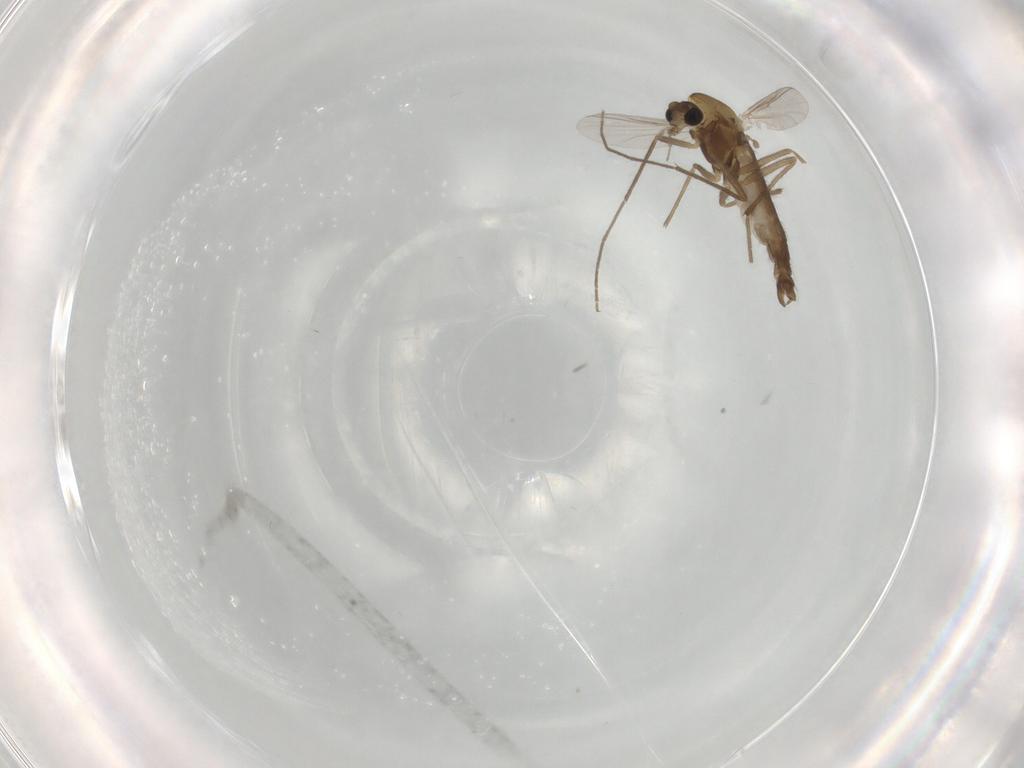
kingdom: Animalia
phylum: Arthropoda
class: Insecta
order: Diptera
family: Chironomidae
